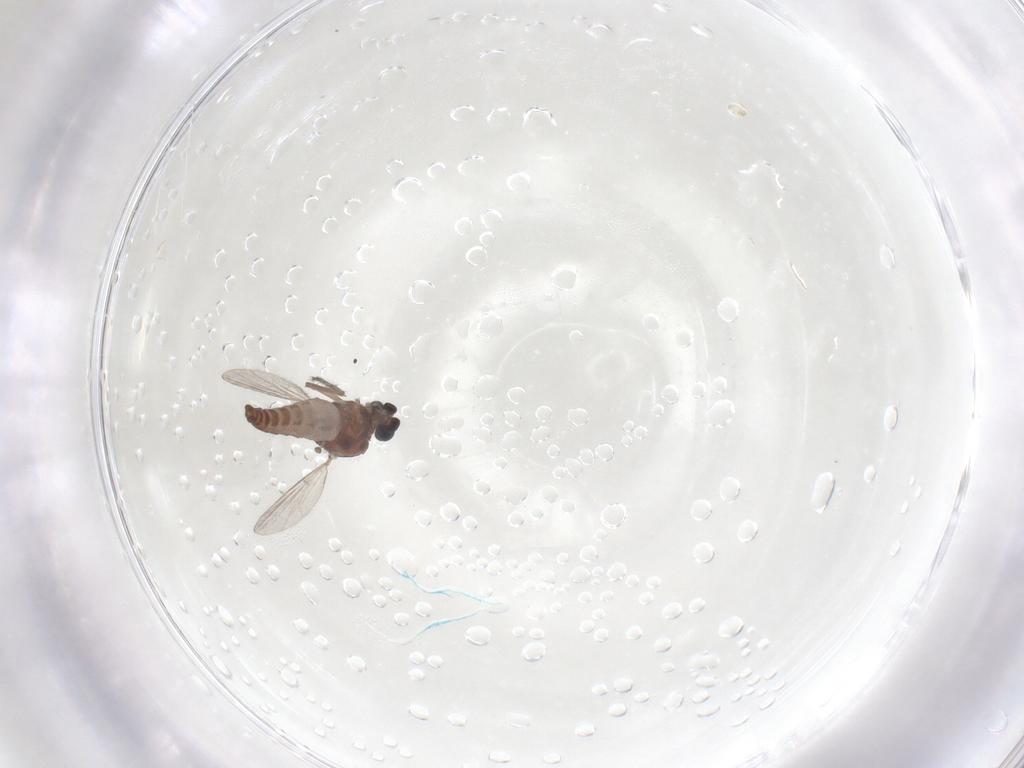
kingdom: Animalia
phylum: Arthropoda
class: Insecta
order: Diptera
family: Ceratopogonidae
